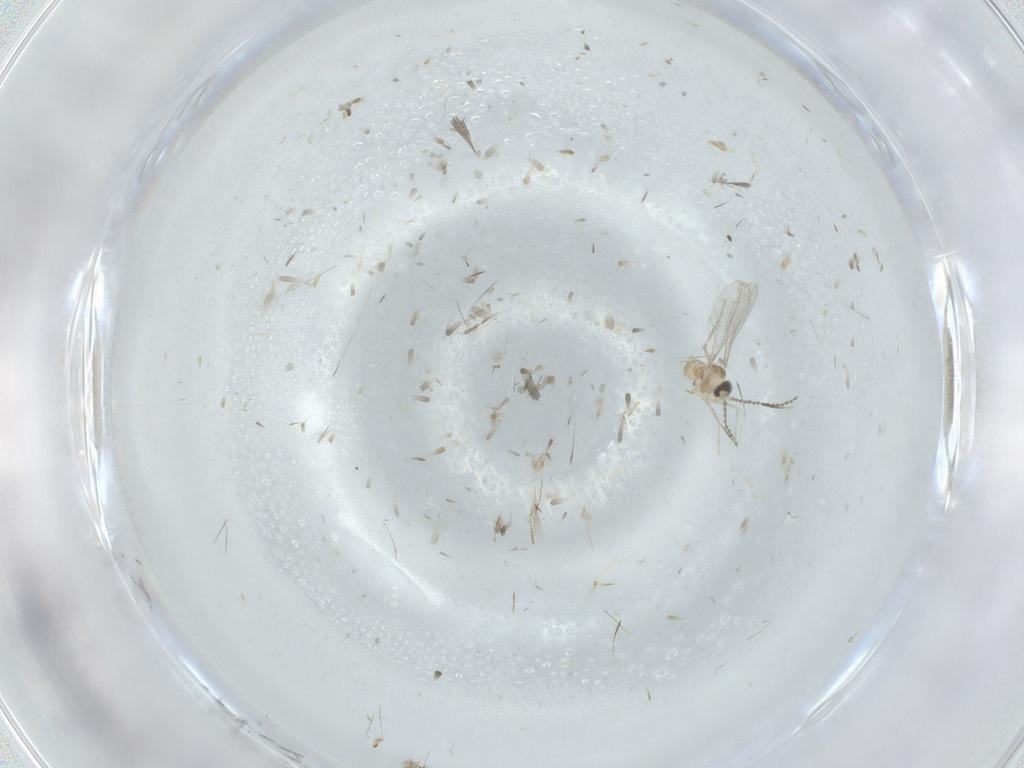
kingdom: Animalia
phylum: Arthropoda
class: Insecta
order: Diptera
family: Cecidomyiidae
